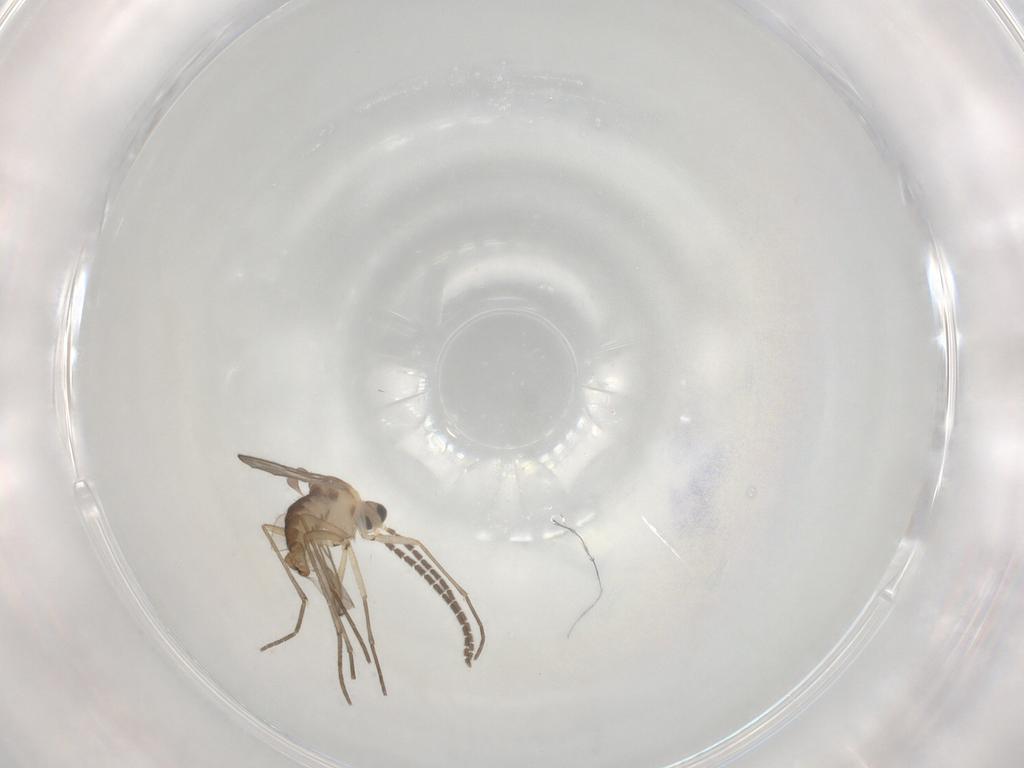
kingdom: Animalia
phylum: Arthropoda
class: Insecta
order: Diptera
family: Sciaridae
